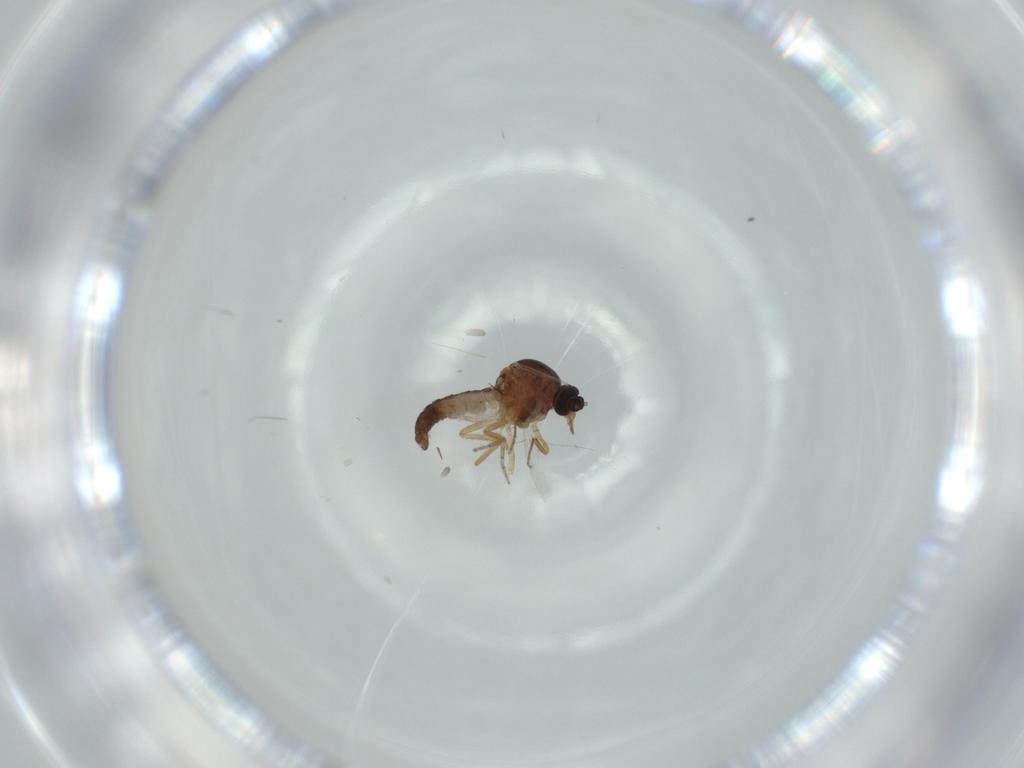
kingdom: Animalia
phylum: Arthropoda
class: Insecta
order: Diptera
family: Ceratopogonidae
